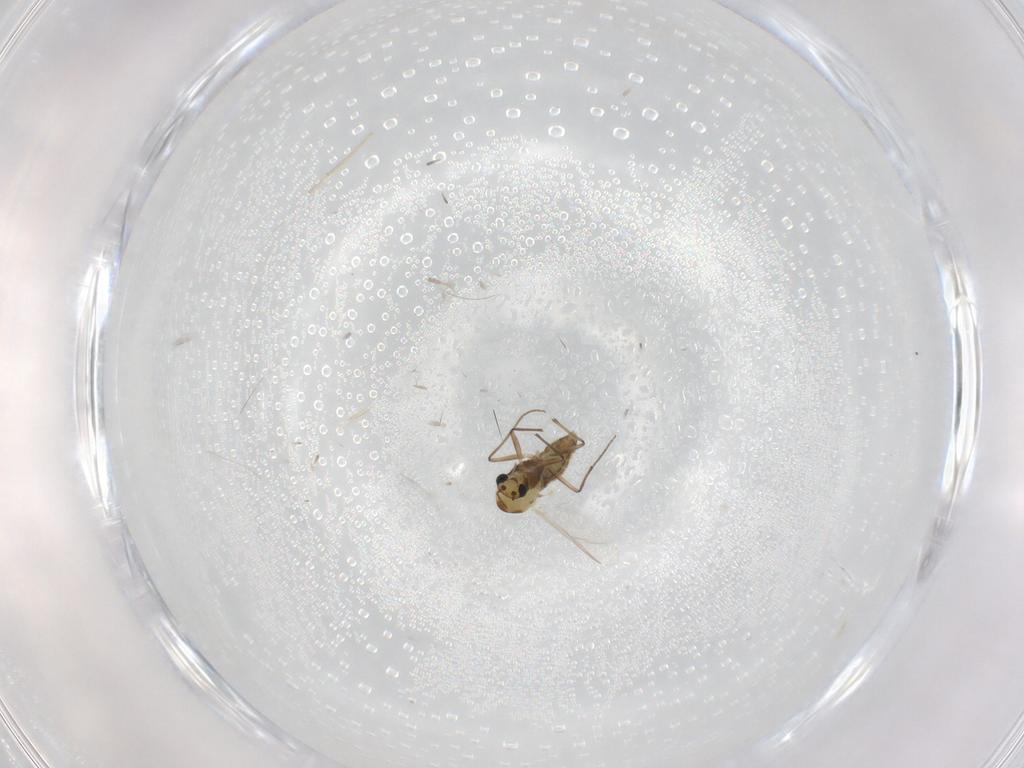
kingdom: Animalia
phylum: Arthropoda
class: Insecta
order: Diptera
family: Chironomidae
